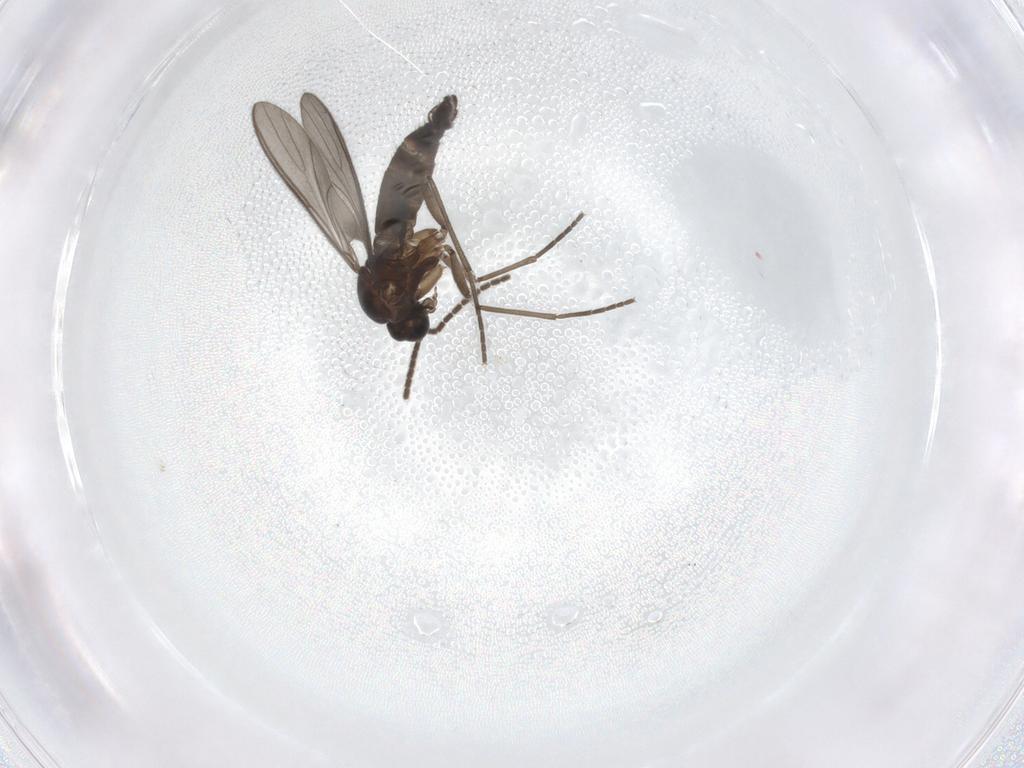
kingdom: Animalia
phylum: Arthropoda
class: Insecta
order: Diptera
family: Sciaridae
